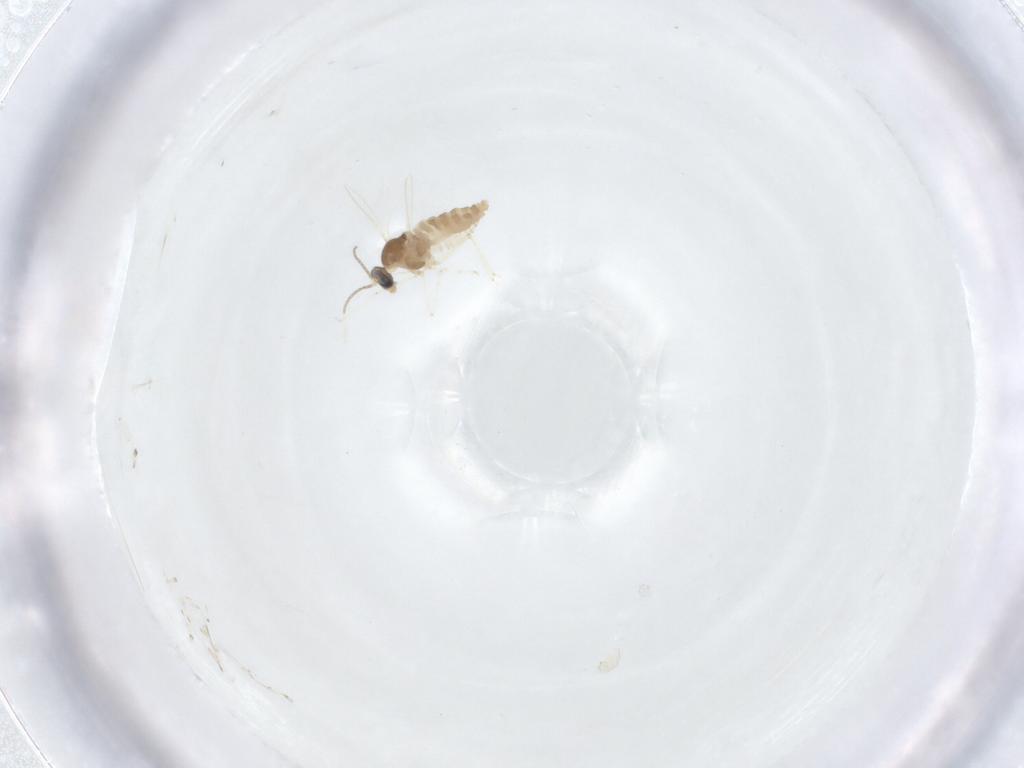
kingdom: Animalia
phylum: Arthropoda
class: Insecta
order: Diptera
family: Cecidomyiidae
